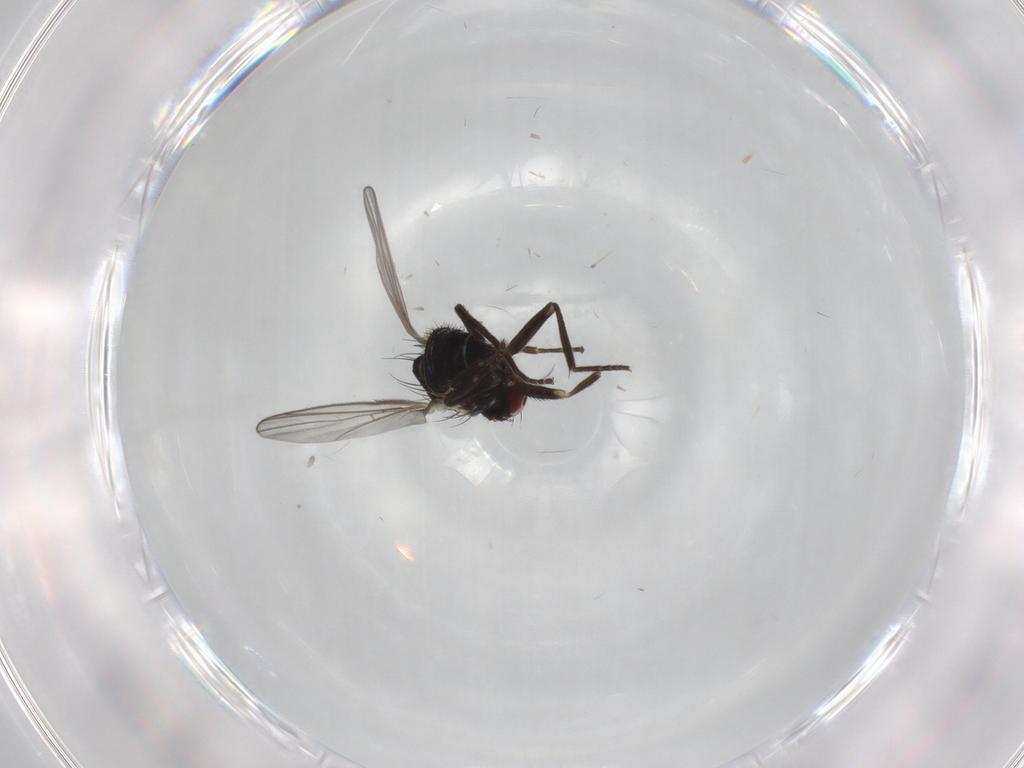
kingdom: Animalia
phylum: Arthropoda
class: Insecta
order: Diptera
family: Agromyzidae
